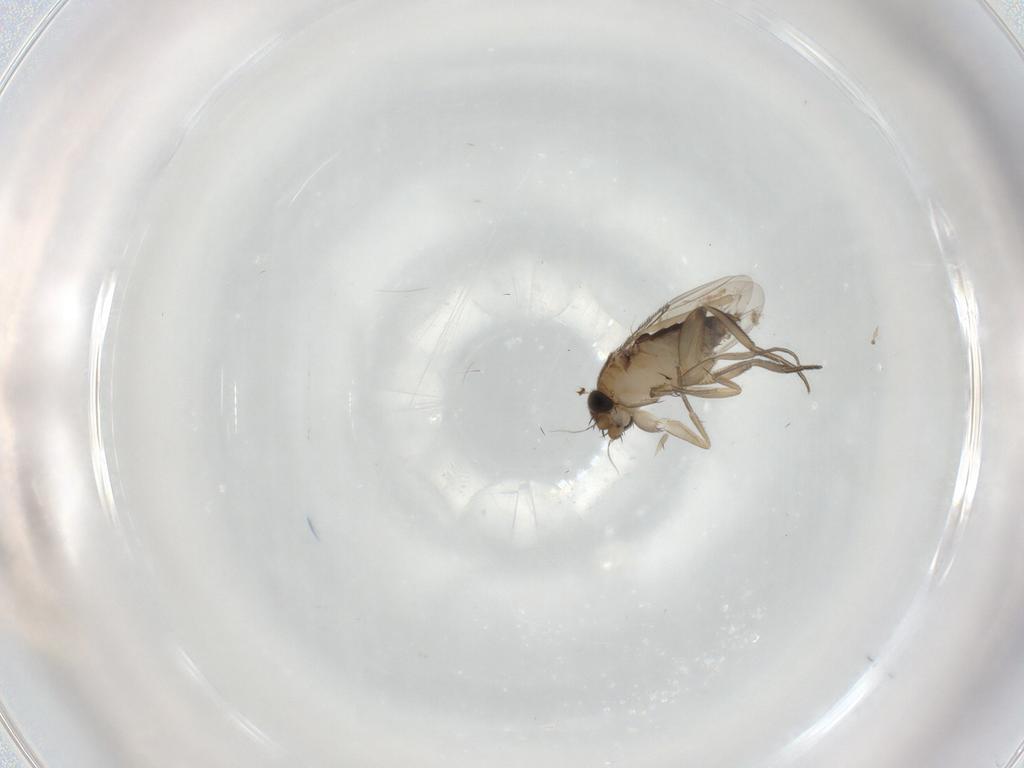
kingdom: Animalia
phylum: Arthropoda
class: Insecta
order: Diptera
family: Phoridae
